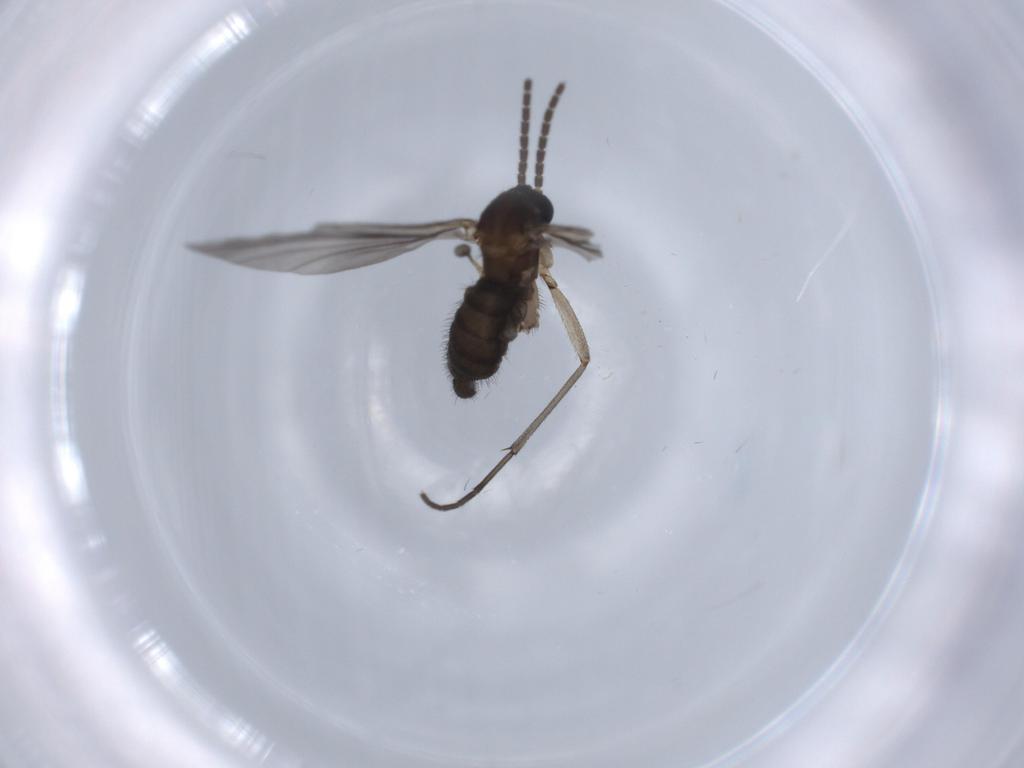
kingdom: Animalia
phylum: Arthropoda
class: Insecta
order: Diptera
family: Sciaridae
